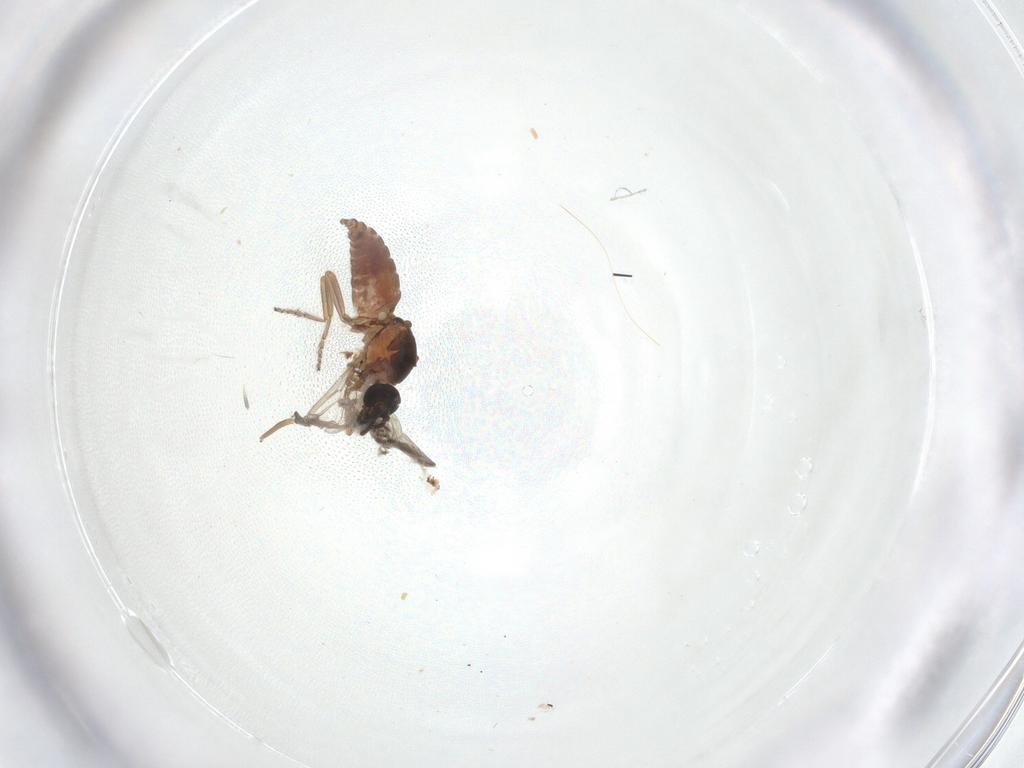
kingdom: Animalia
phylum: Arthropoda
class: Insecta
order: Diptera
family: Ceratopogonidae
